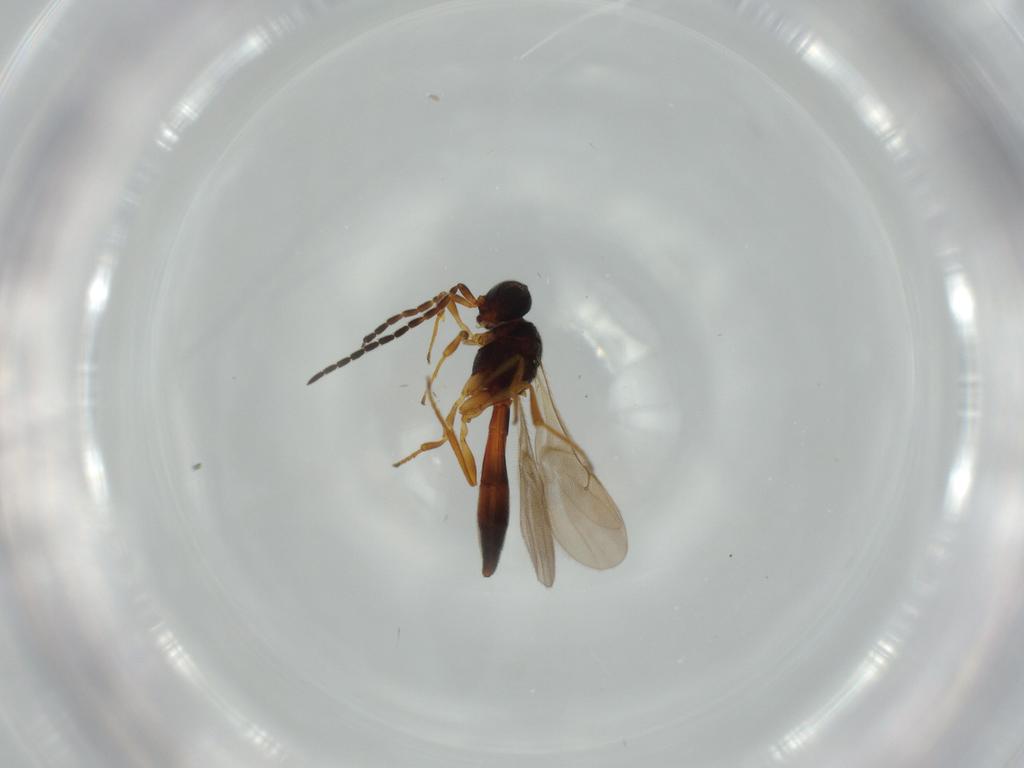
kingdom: Animalia
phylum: Arthropoda
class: Insecta
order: Hymenoptera
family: Scelionidae
